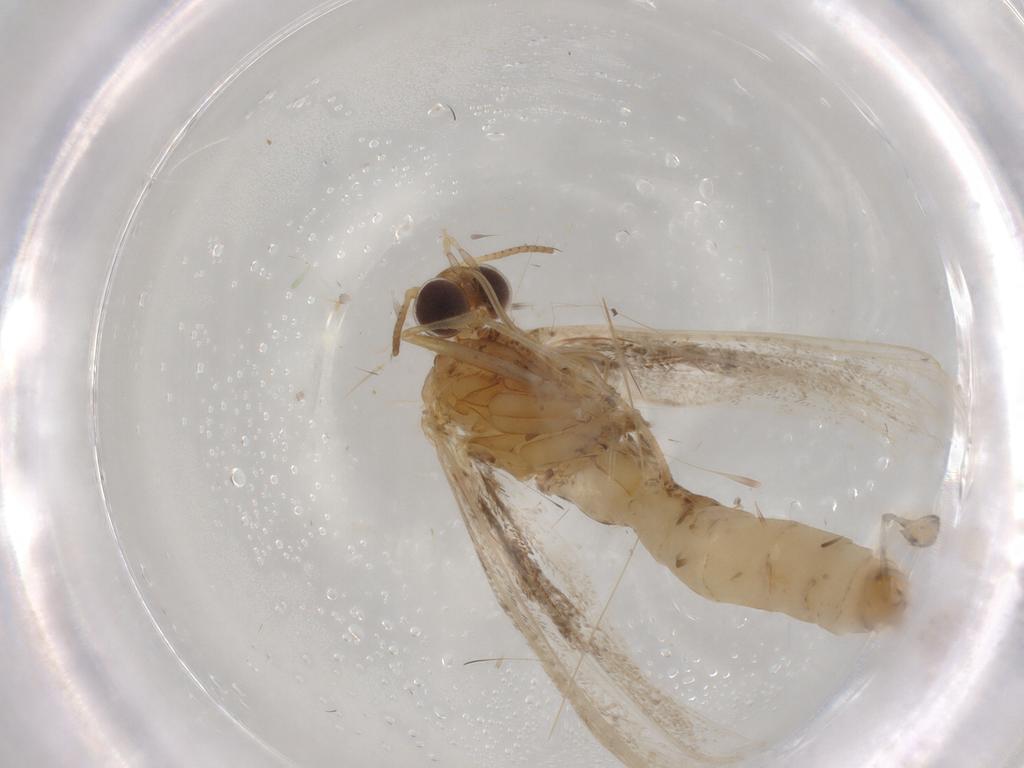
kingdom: Animalia
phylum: Arthropoda
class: Insecta
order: Lepidoptera
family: Pterophoridae
